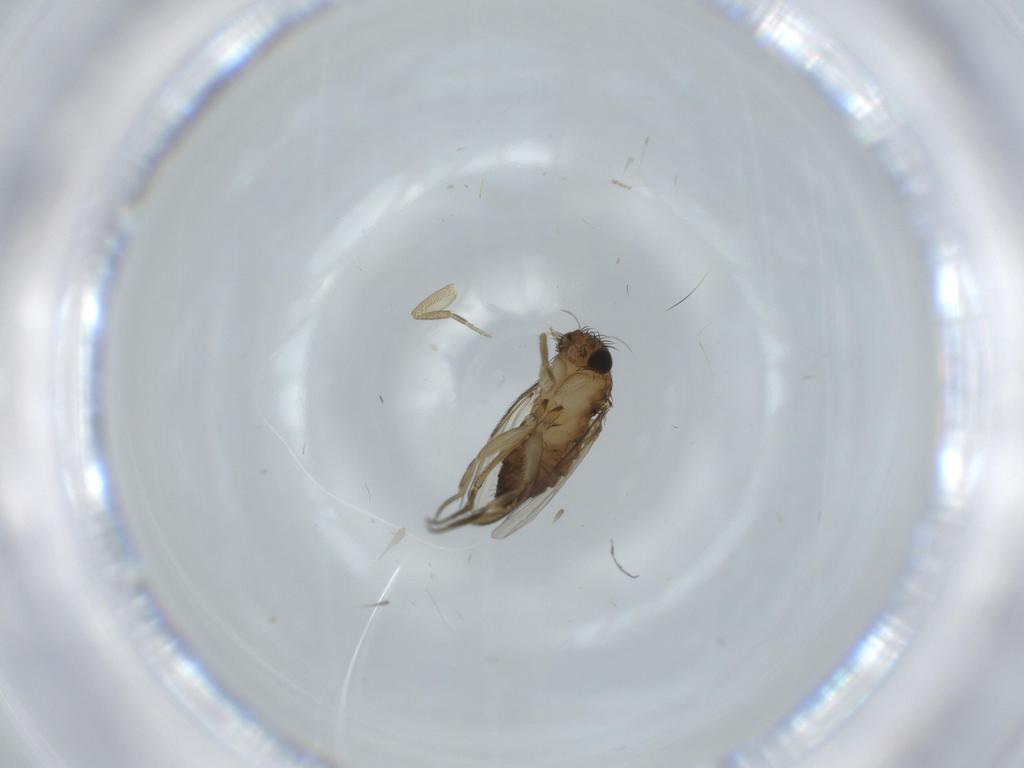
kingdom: Animalia
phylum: Arthropoda
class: Insecta
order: Diptera
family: Phoridae
